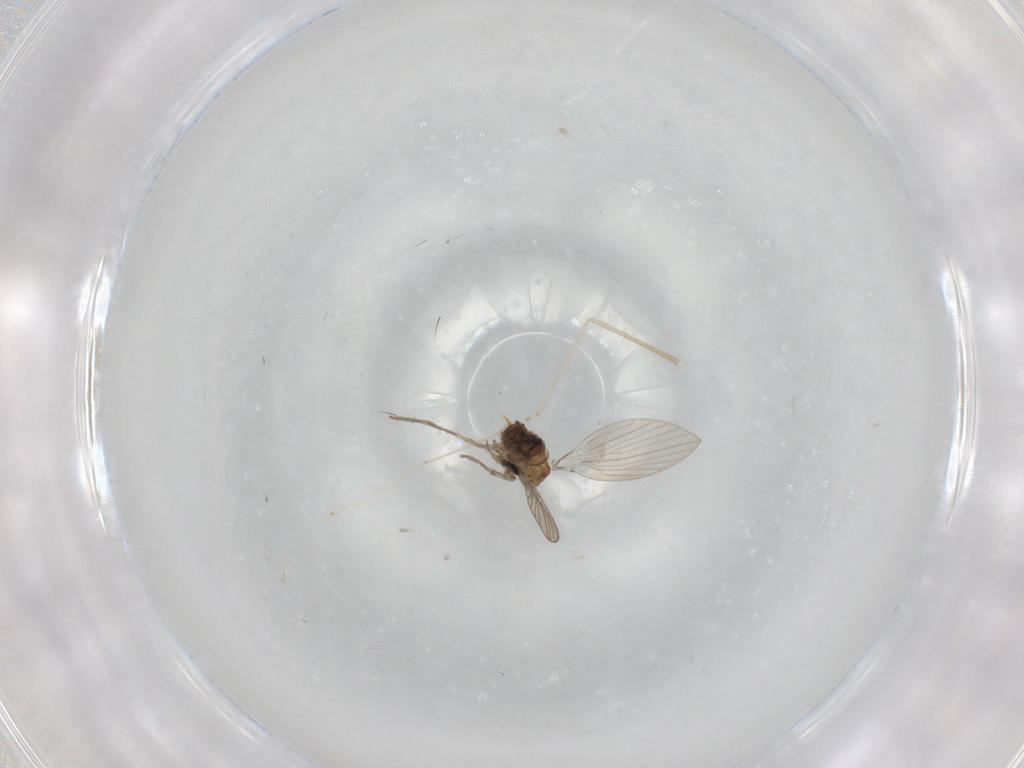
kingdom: Animalia
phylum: Arthropoda
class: Insecta
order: Diptera
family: Psychodidae
